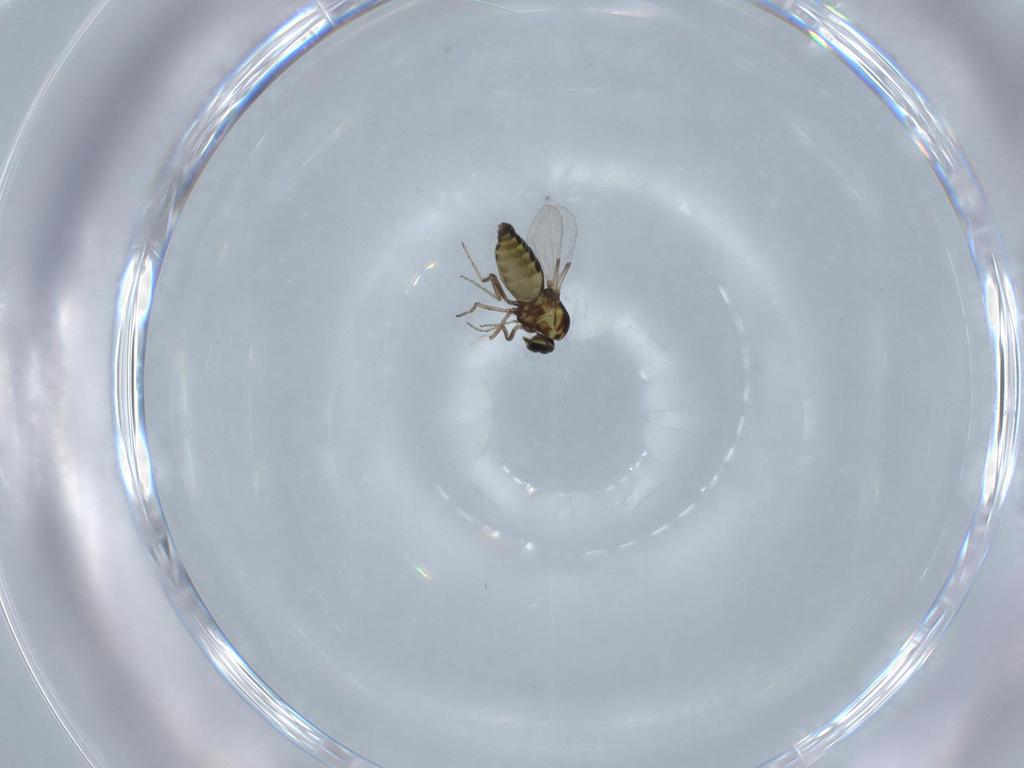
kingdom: Animalia
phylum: Arthropoda
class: Insecta
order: Diptera
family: Ceratopogonidae
